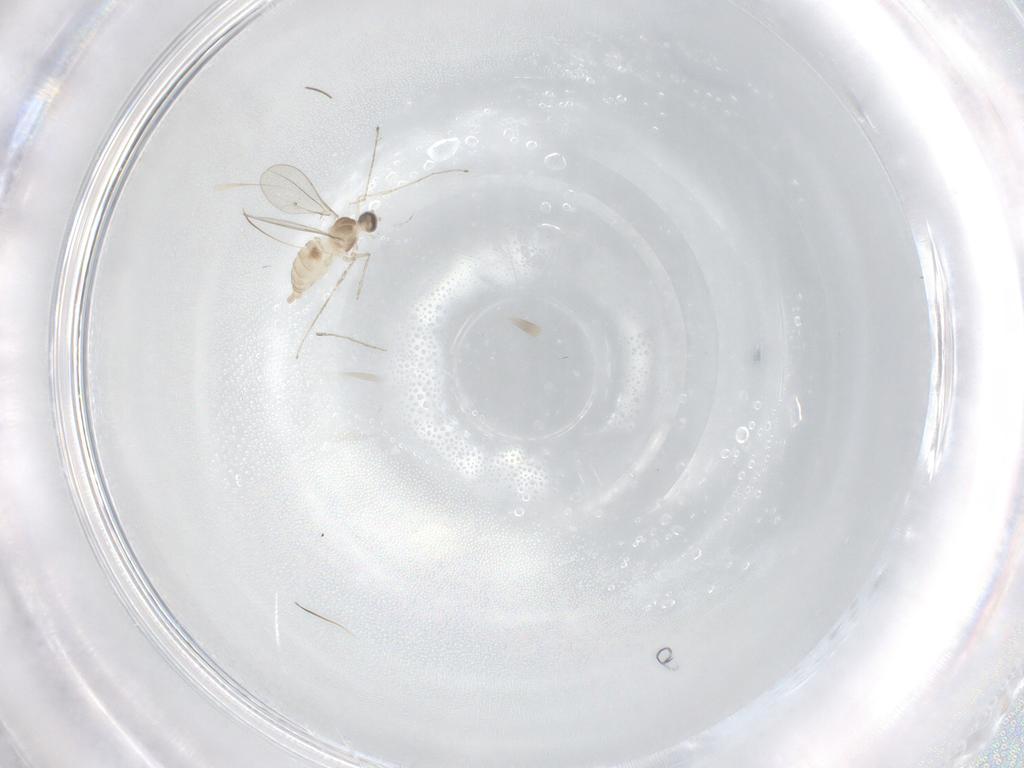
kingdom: Animalia
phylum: Arthropoda
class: Insecta
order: Diptera
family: Cecidomyiidae
